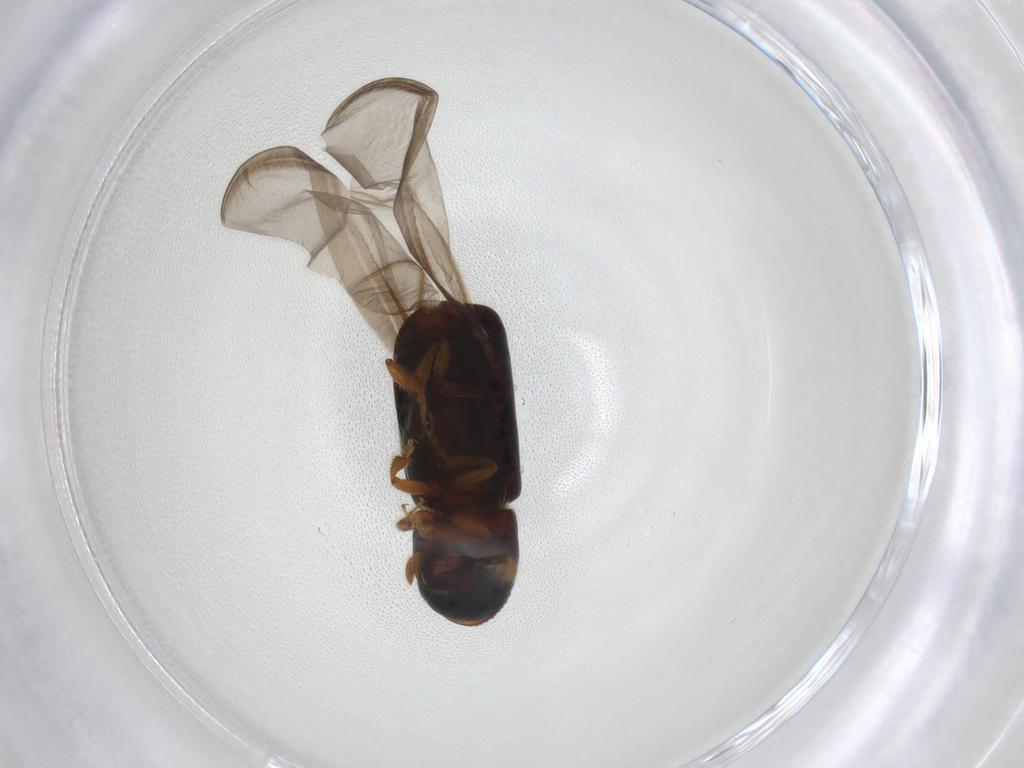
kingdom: Animalia
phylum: Arthropoda
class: Insecta
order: Coleoptera
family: Curculionidae
